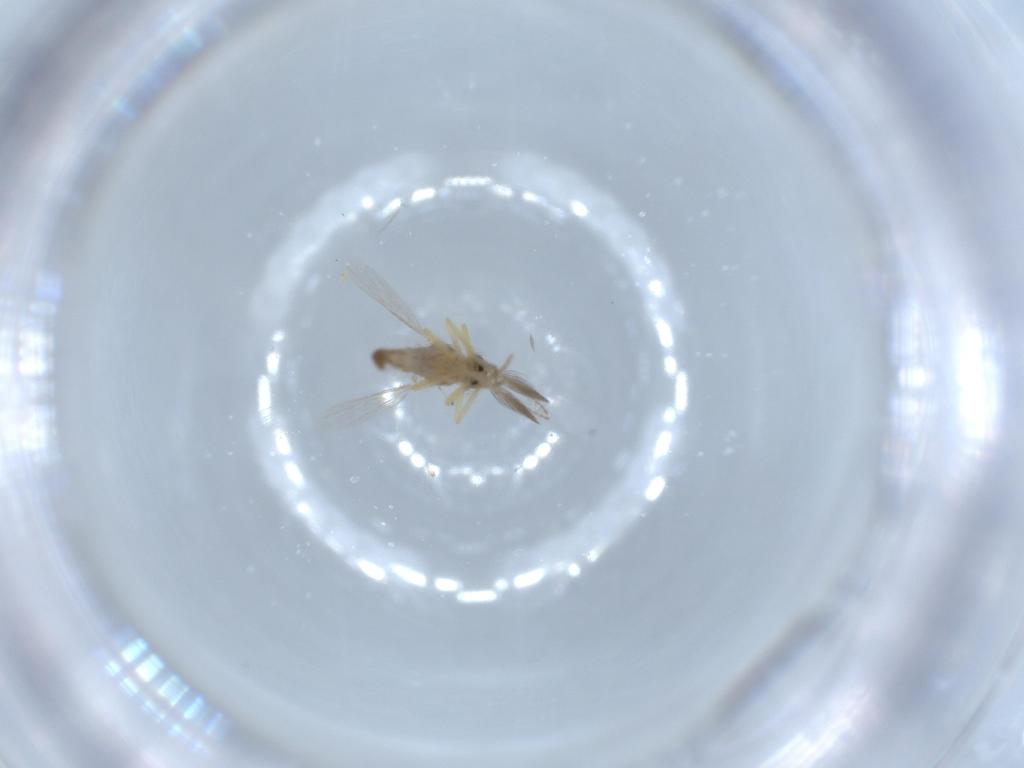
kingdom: Animalia
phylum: Arthropoda
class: Insecta
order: Diptera
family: Ceratopogonidae
